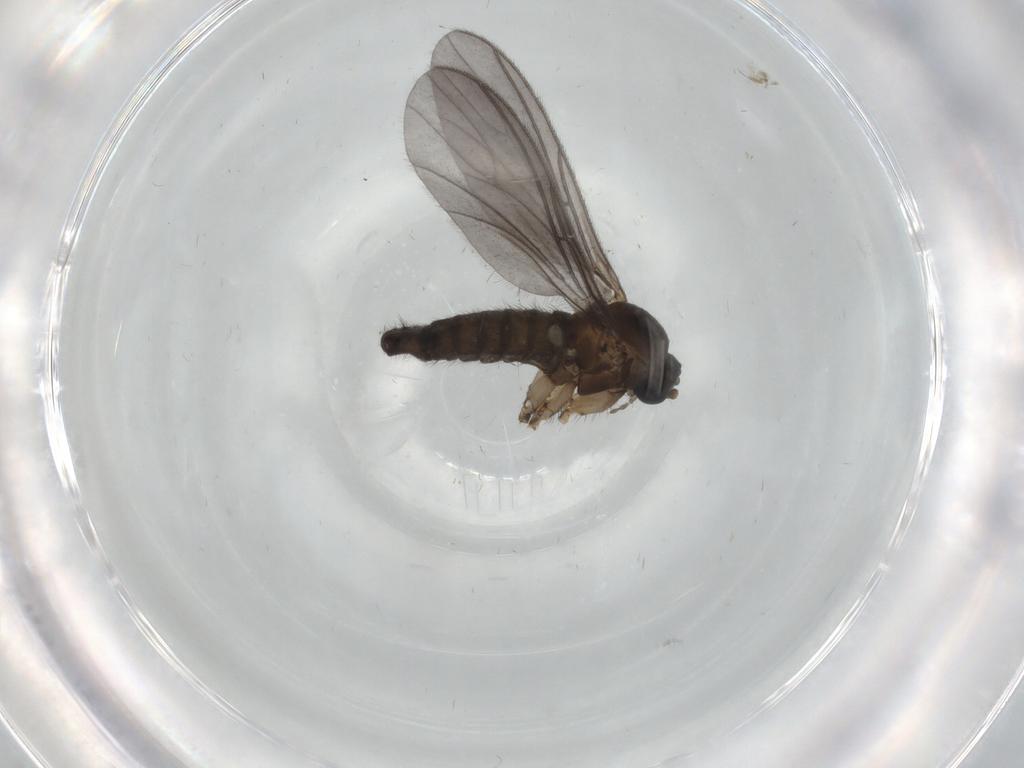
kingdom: Animalia
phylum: Arthropoda
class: Insecta
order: Diptera
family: Sciaridae
